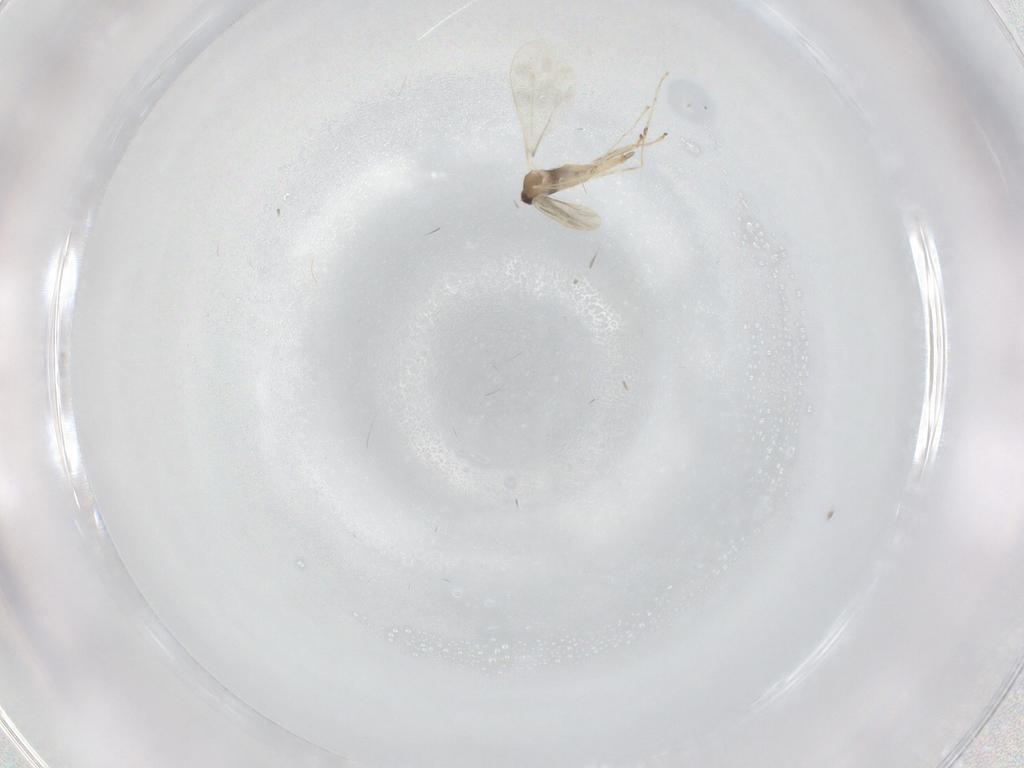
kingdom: Animalia
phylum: Arthropoda
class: Insecta
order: Diptera
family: Cecidomyiidae
